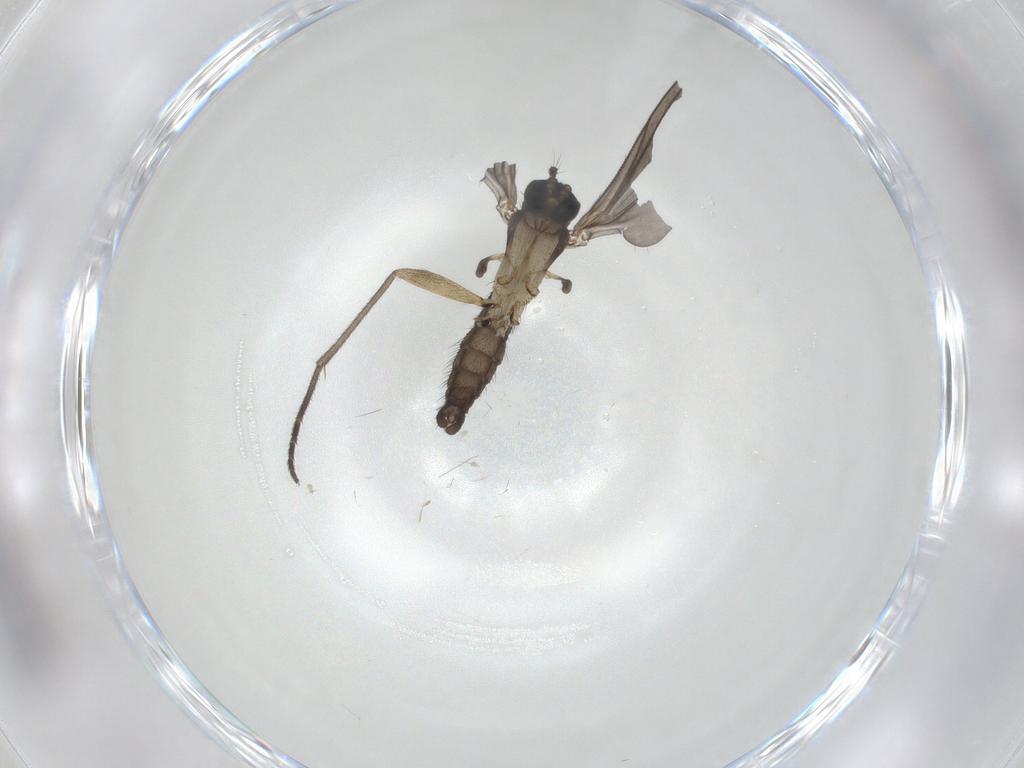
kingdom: Animalia
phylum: Arthropoda
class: Insecta
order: Diptera
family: Sciaridae
